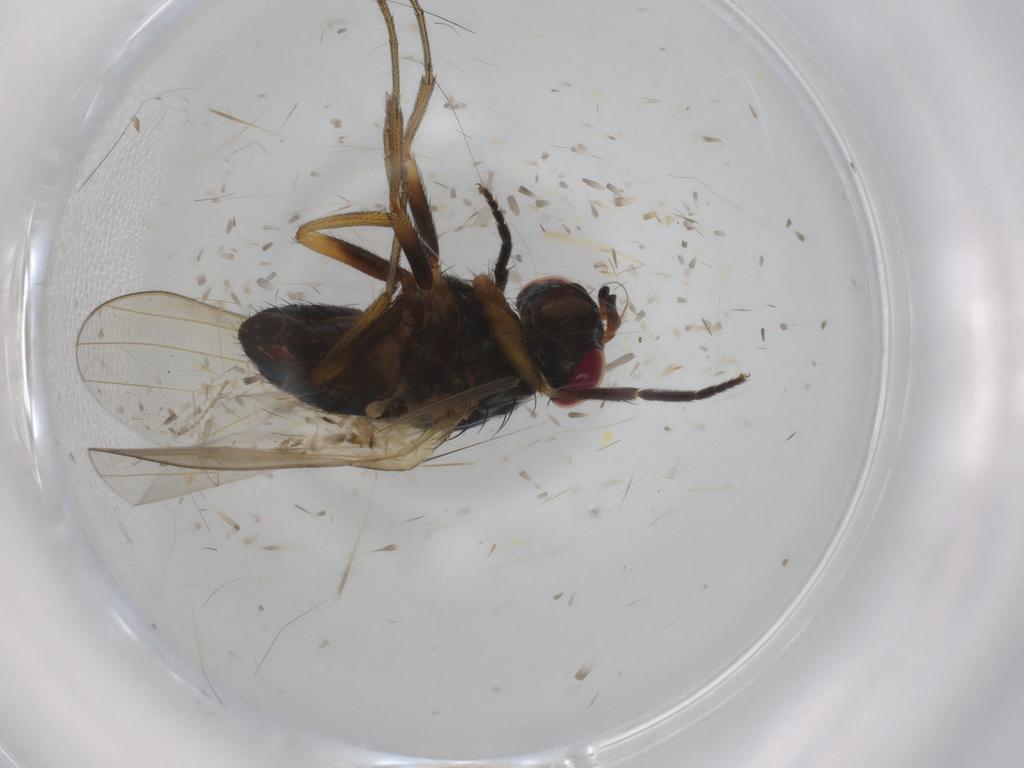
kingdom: Animalia
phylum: Arthropoda
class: Insecta
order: Diptera
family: Lauxaniidae
